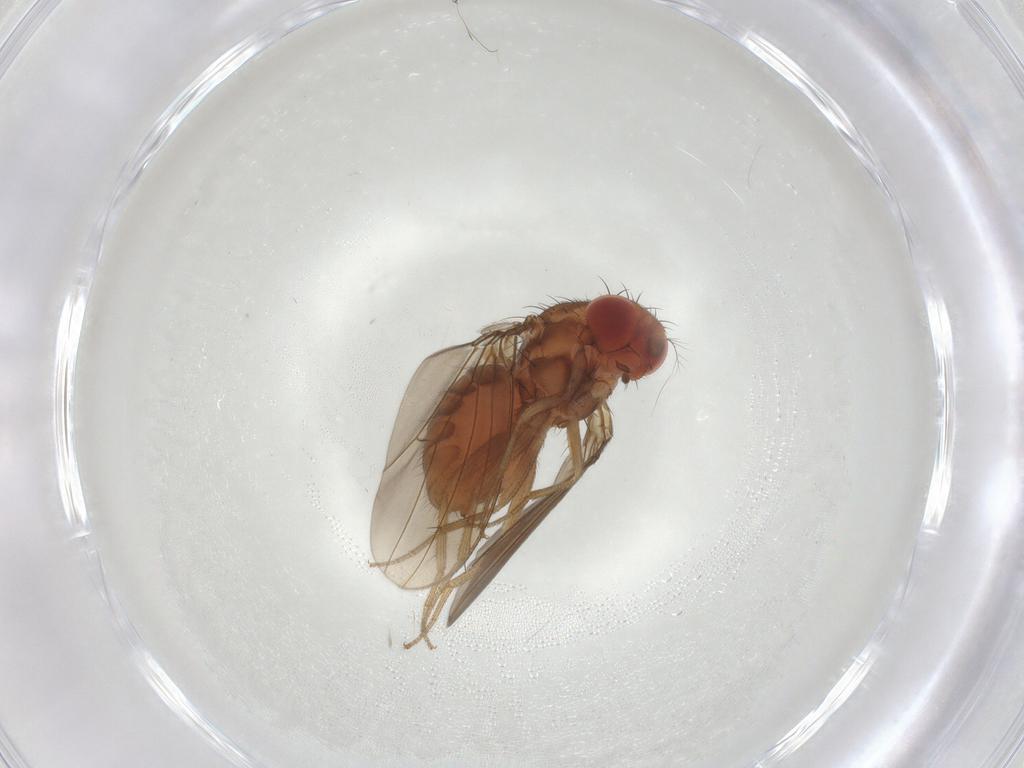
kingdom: Animalia
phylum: Arthropoda
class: Insecta
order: Diptera
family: Drosophilidae
